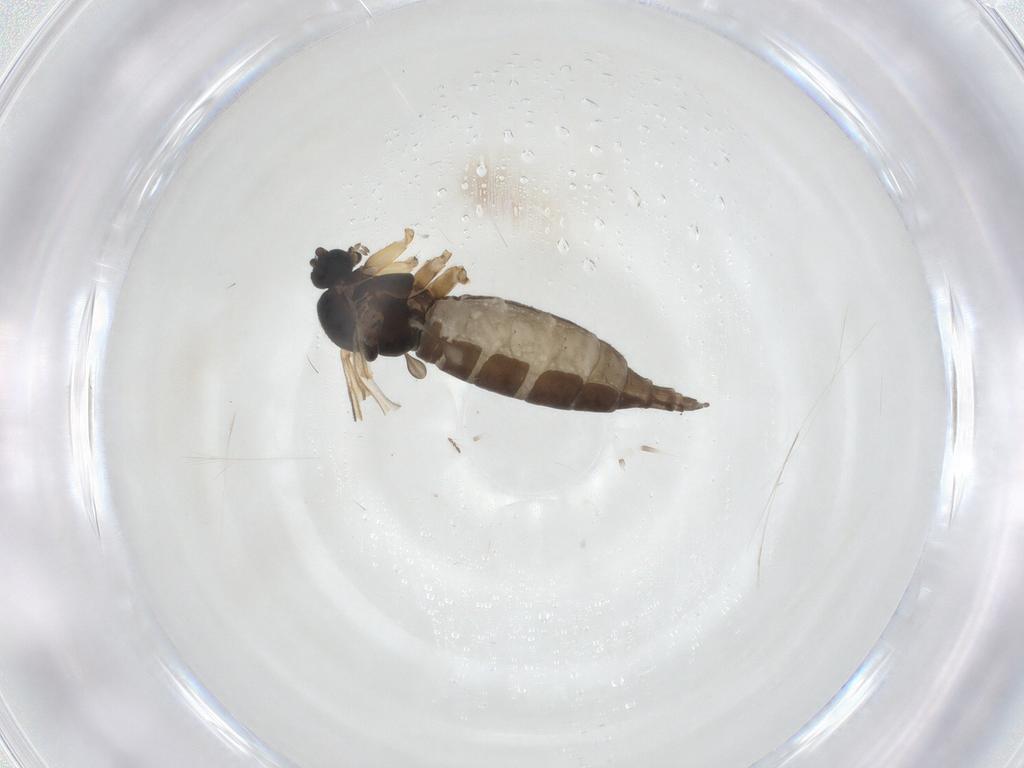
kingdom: Animalia
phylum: Arthropoda
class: Insecta
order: Diptera
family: Sciaridae
